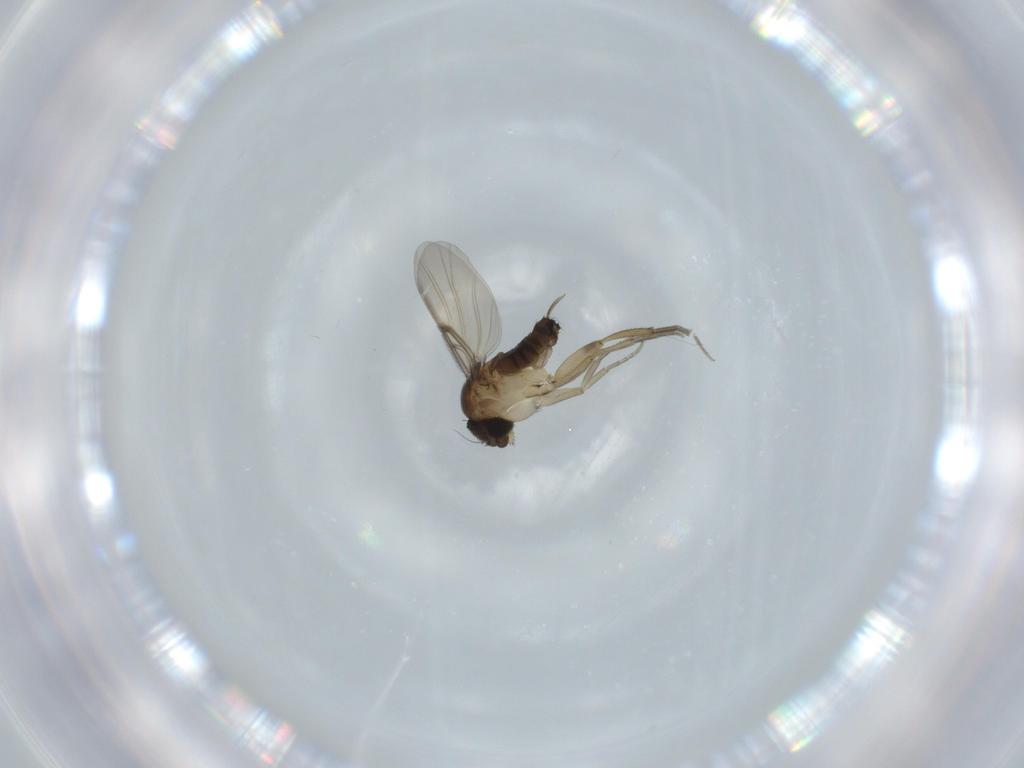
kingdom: Animalia
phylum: Arthropoda
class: Insecta
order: Diptera
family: Phoridae
